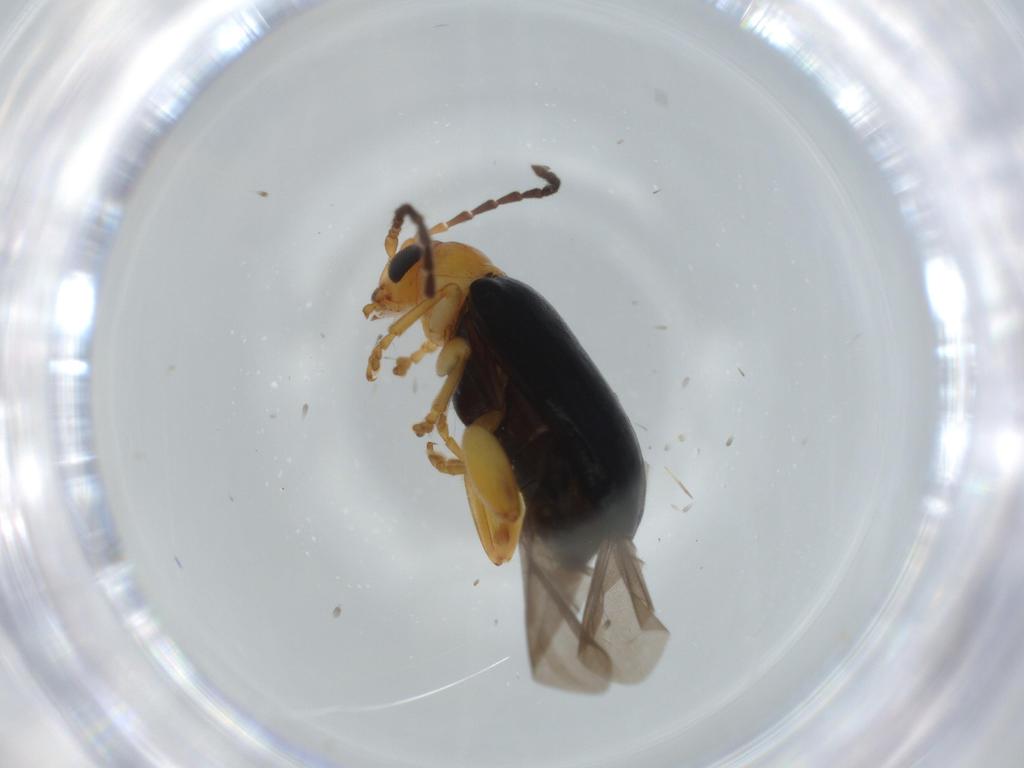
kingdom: Animalia
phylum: Arthropoda
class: Insecta
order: Coleoptera
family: Chrysomelidae
